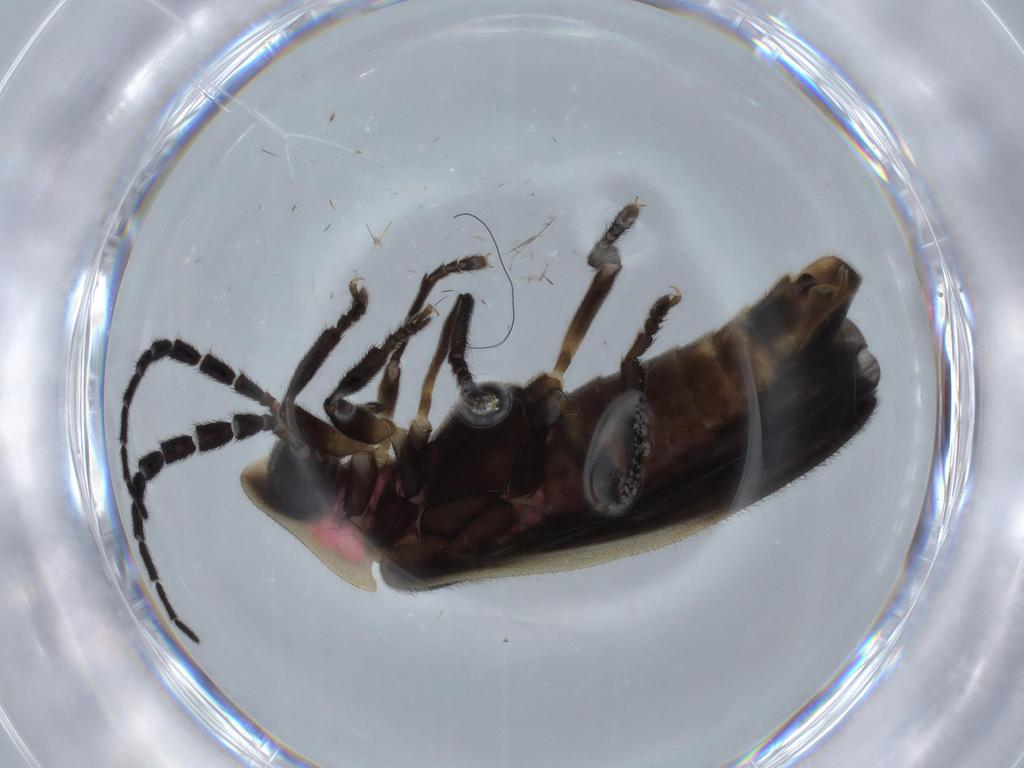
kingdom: Animalia
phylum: Arthropoda
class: Insecta
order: Coleoptera
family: Lampyridae
